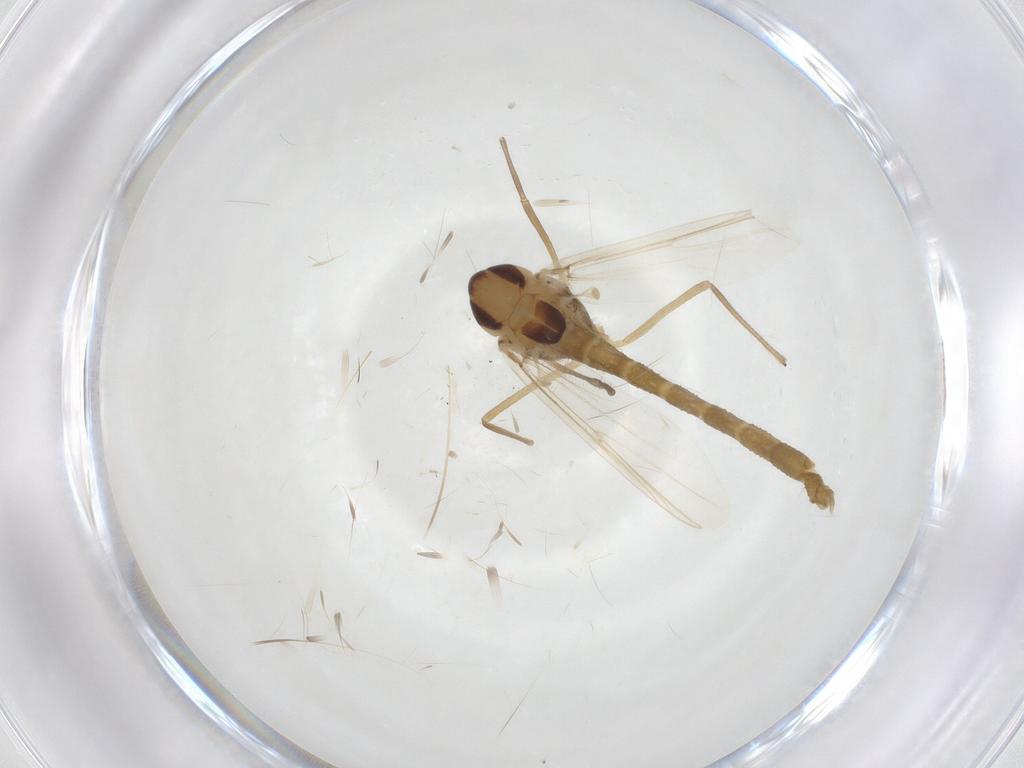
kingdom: Animalia
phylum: Arthropoda
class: Insecta
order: Diptera
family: Chironomidae
